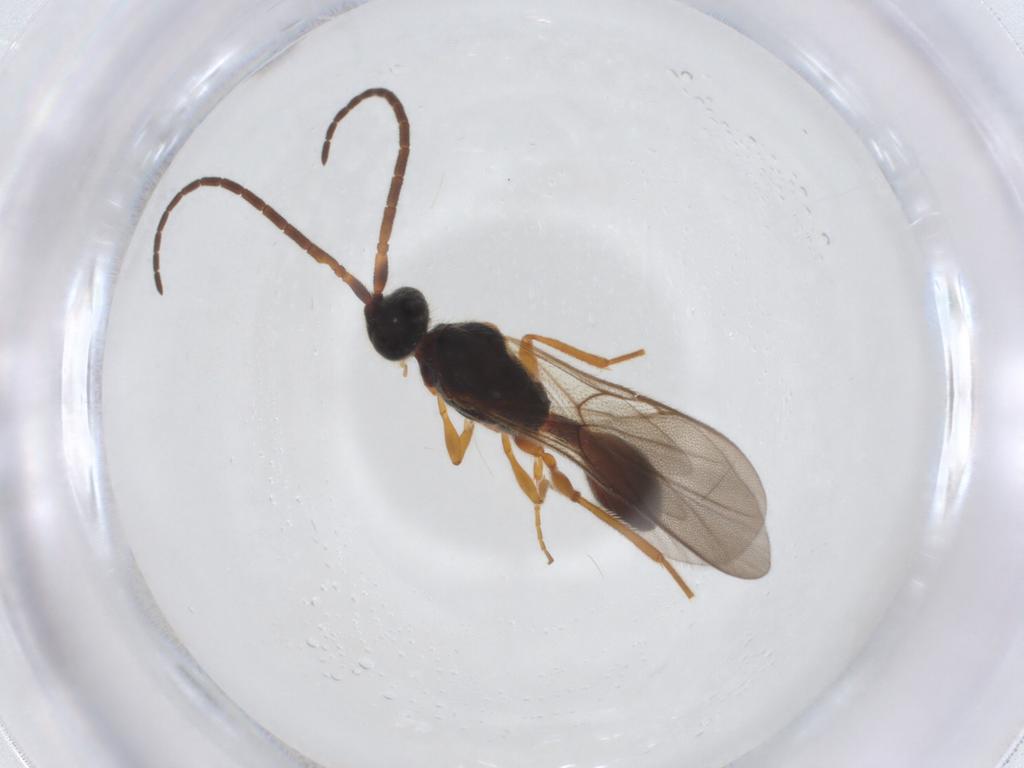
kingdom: Animalia
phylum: Arthropoda
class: Insecta
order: Hymenoptera
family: Diapriidae
